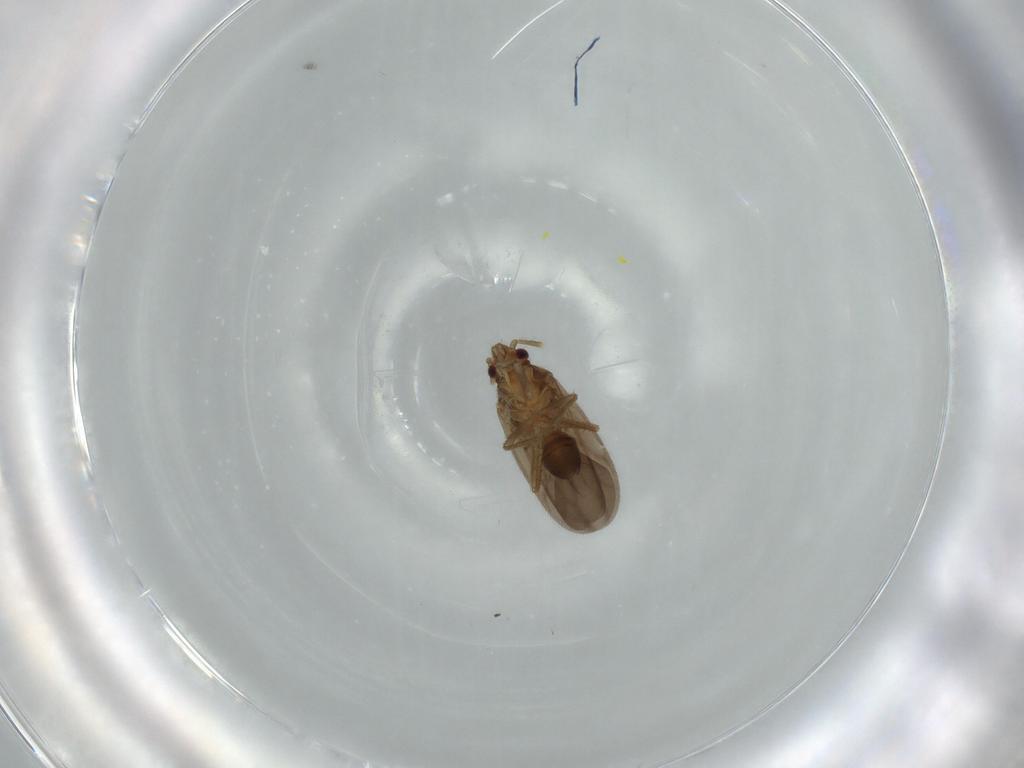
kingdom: Animalia
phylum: Arthropoda
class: Insecta
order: Hemiptera
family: Ceratocombidae
